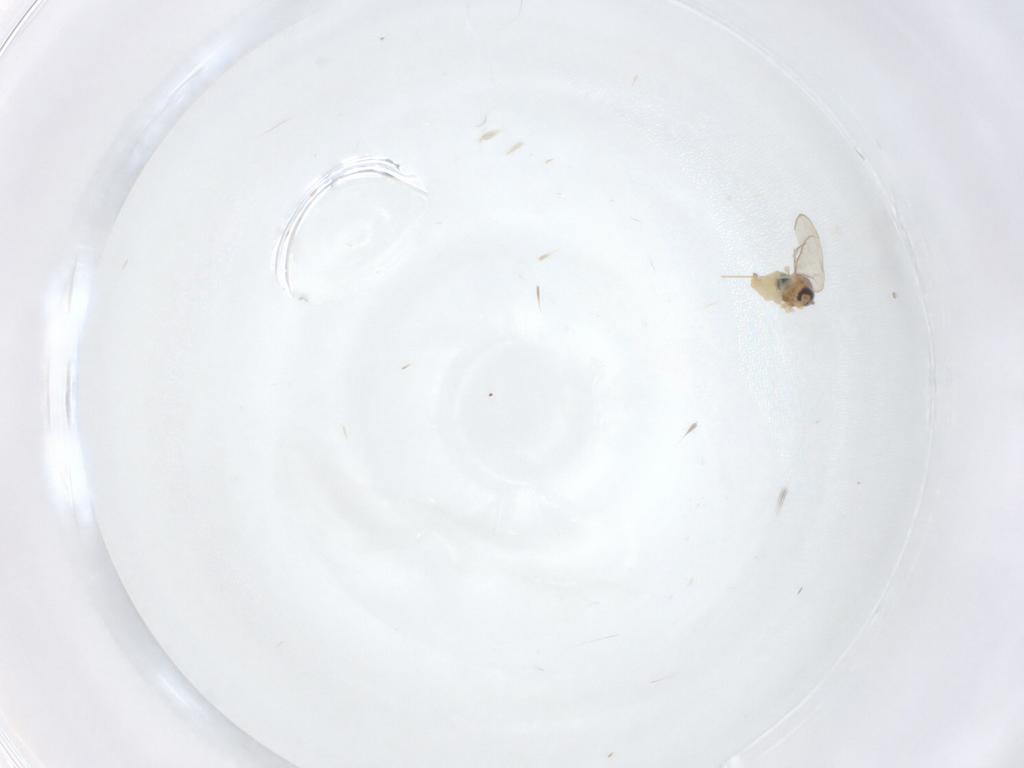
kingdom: Animalia
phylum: Arthropoda
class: Insecta
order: Diptera
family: Cecidomyiidae
